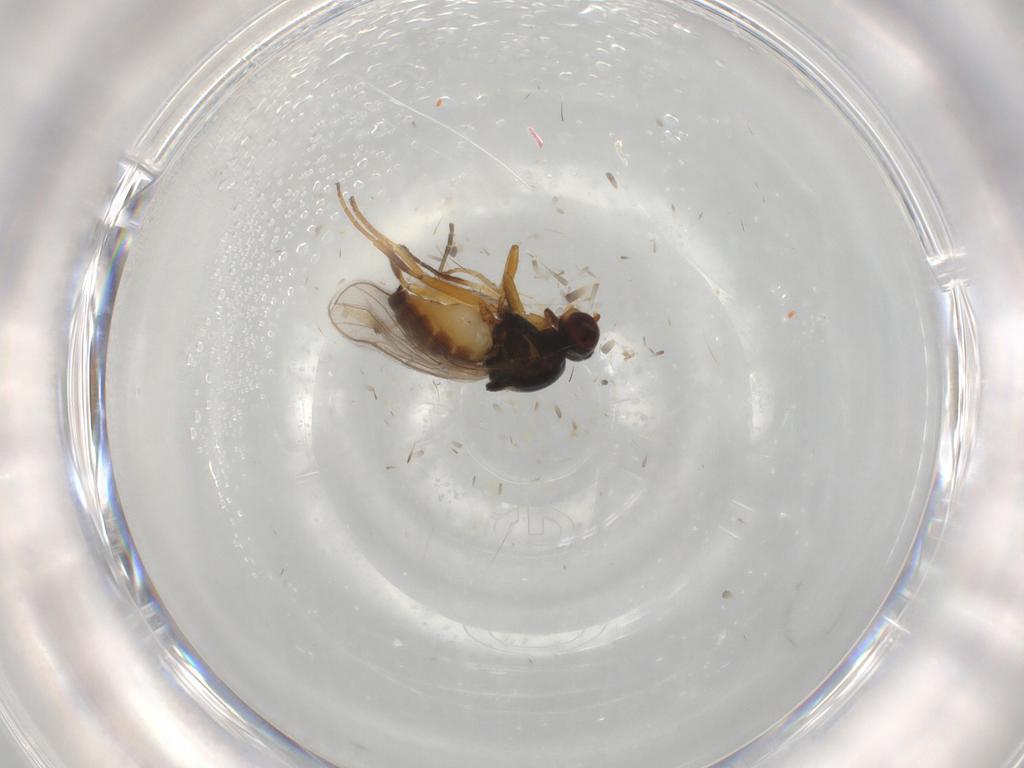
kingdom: Animalia
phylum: Arthropoda
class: Insecta
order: Diptera
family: Chloropidae
